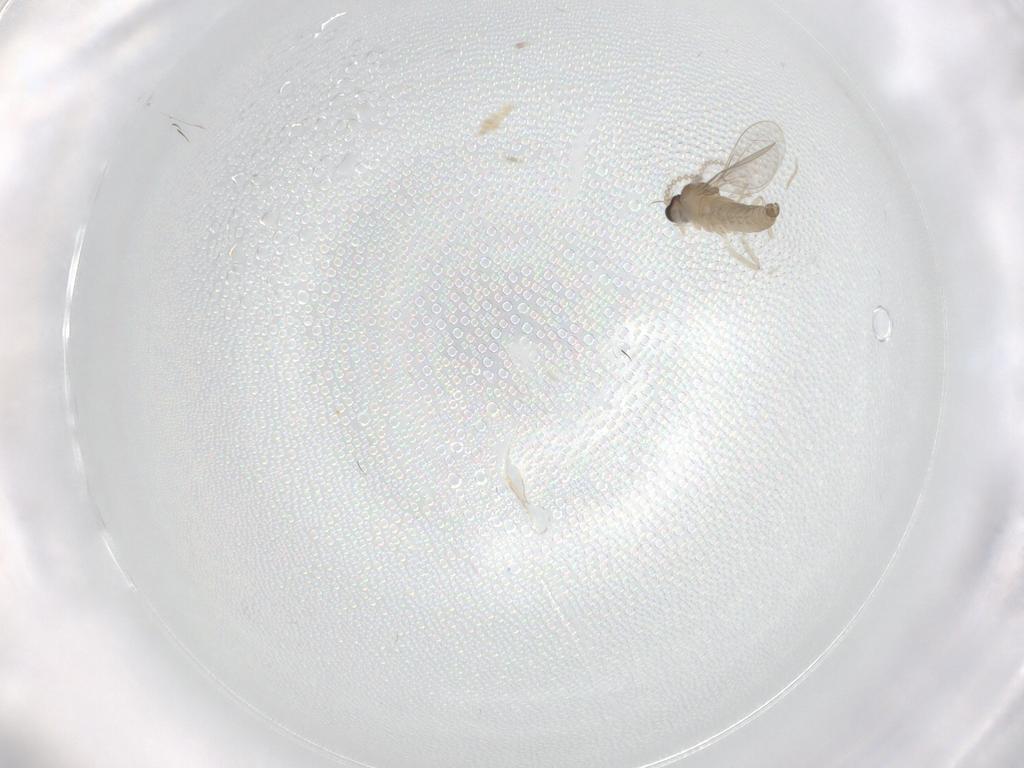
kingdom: Animalia
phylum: Arthropoda
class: Insecta
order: Diptera
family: Cecidomyiidae
